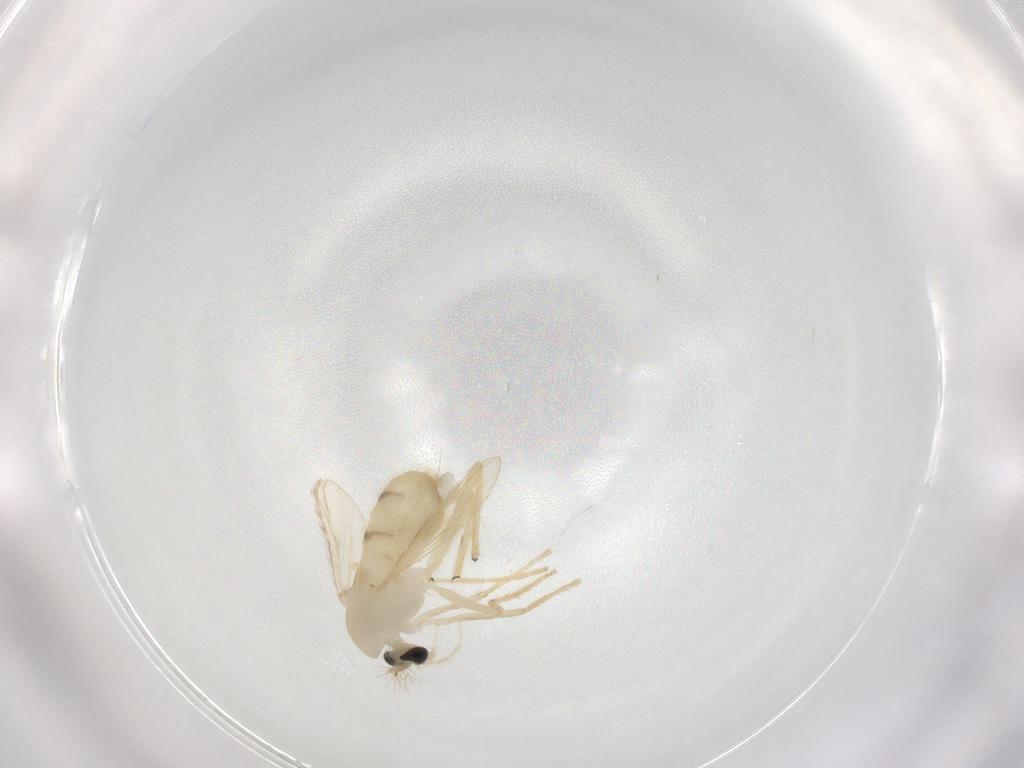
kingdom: Animalia
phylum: Arthropoda
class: Insecta
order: Diptera
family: Chironomidae
